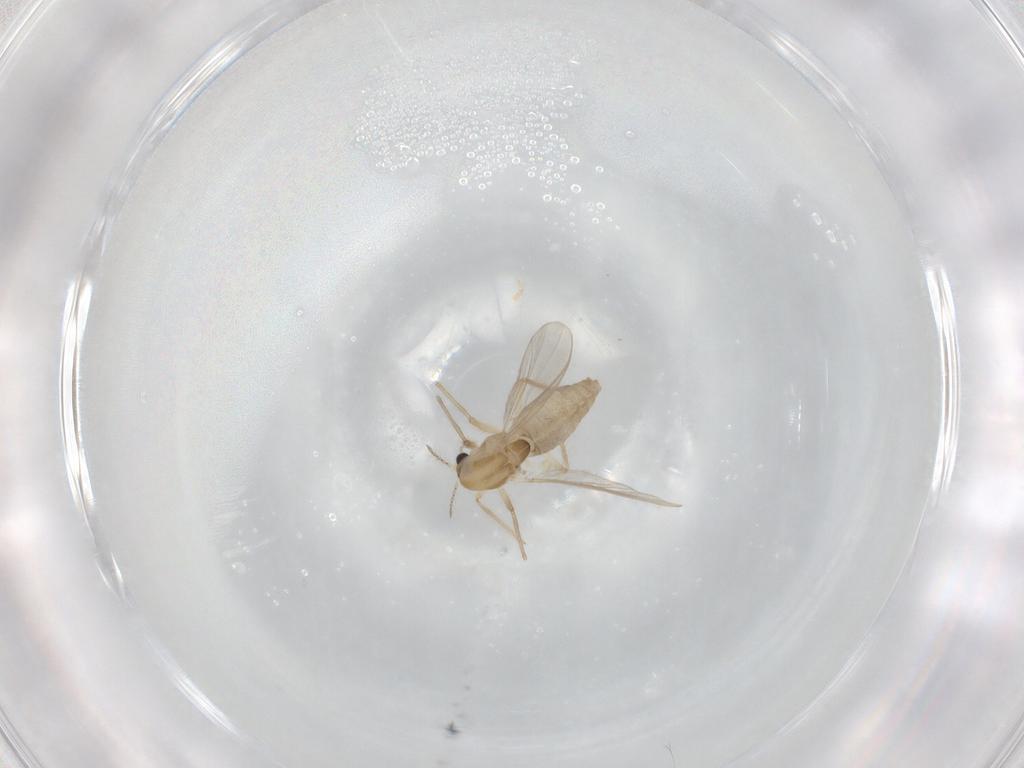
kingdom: Animalia
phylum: Arthropoda
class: Insecta
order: Diptera
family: Chironomidae
